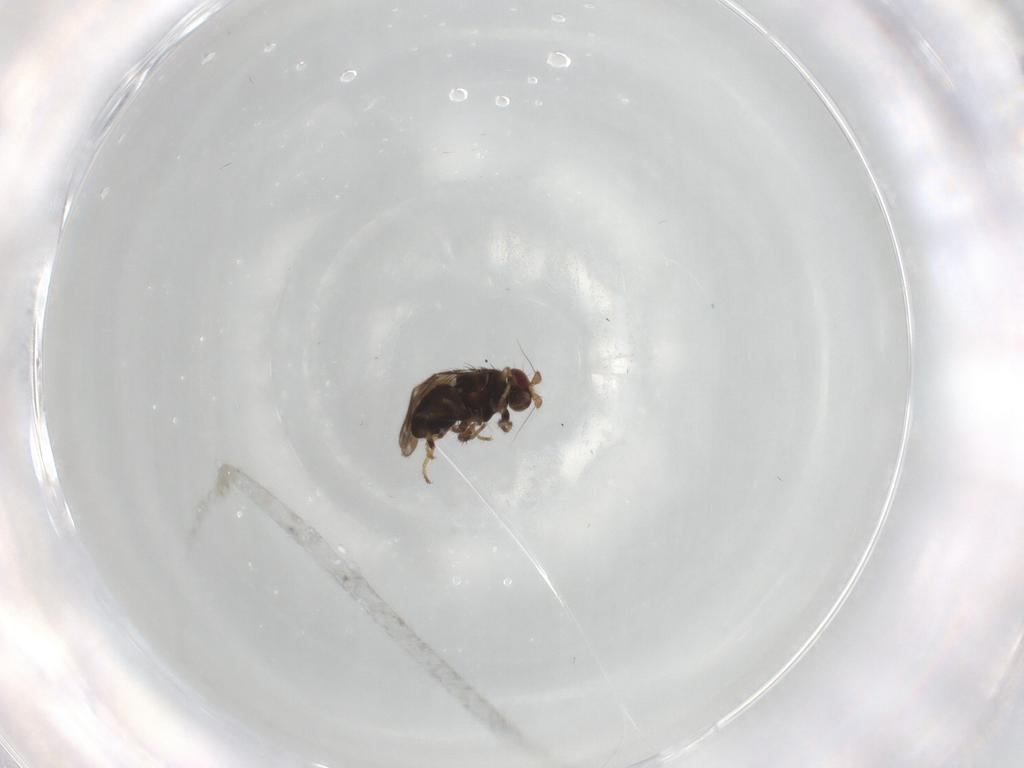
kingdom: Animalia
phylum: Arthropoda
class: Insecta
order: Diptera
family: Sciaridae
